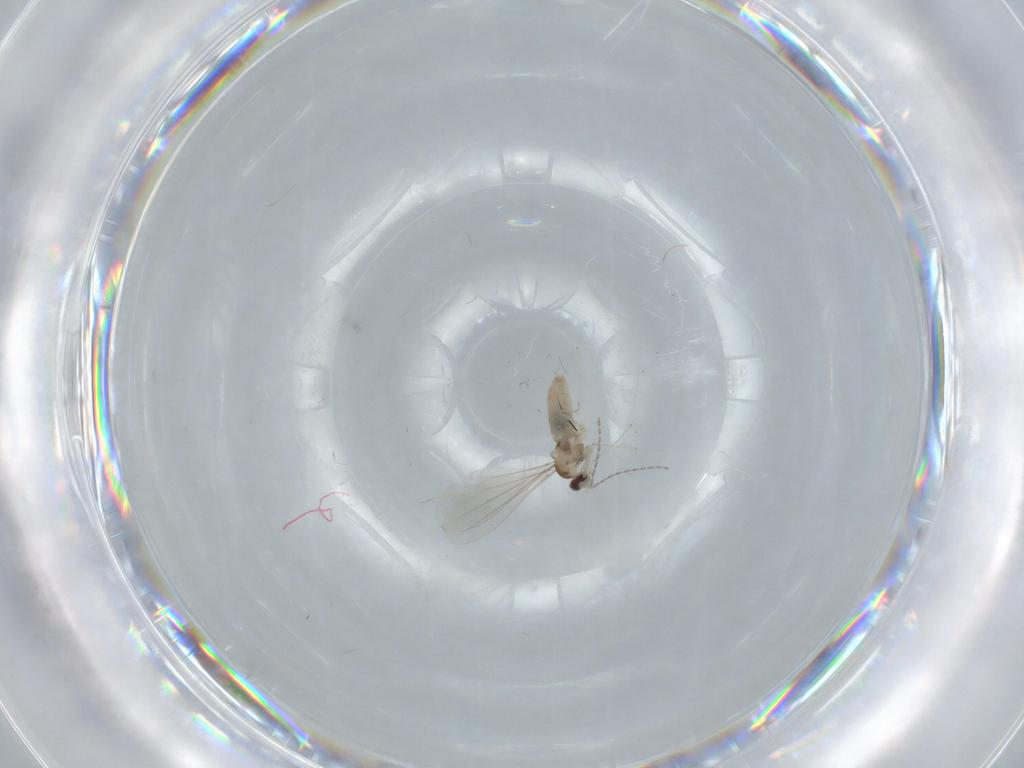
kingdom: Animalia
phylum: Arthropoda
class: Insecta
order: Diptera
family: Cecidomyiidae
